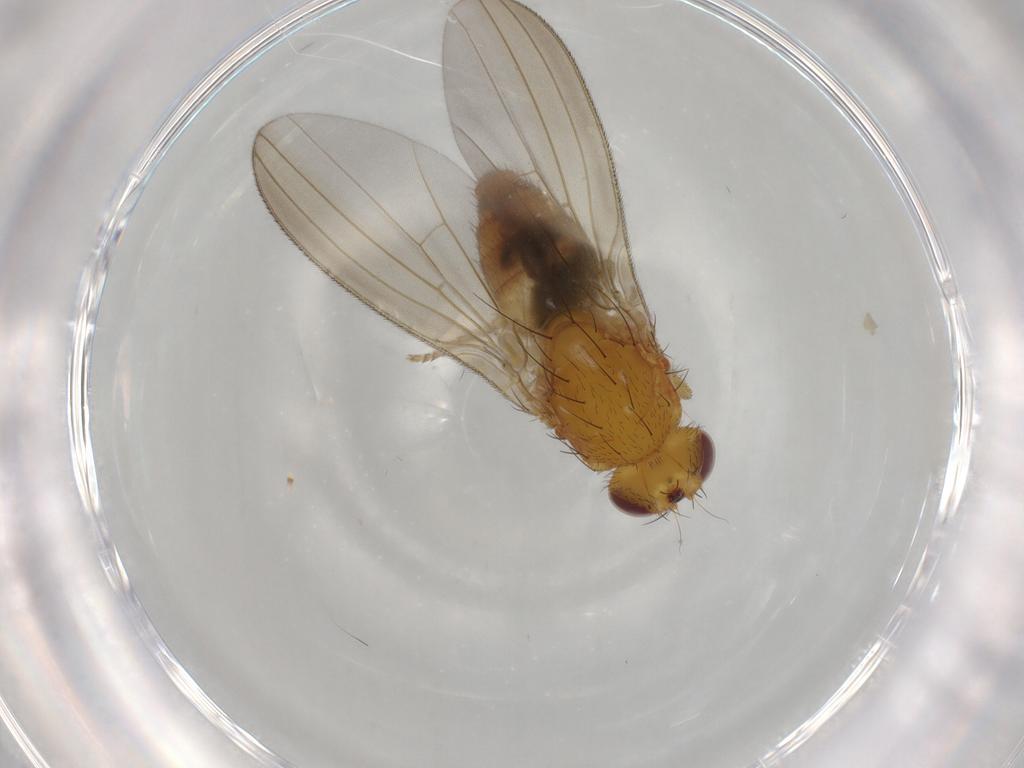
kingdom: Animalia
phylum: Arthropoda
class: Insecta
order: Diptera
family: Natalimyzidae
